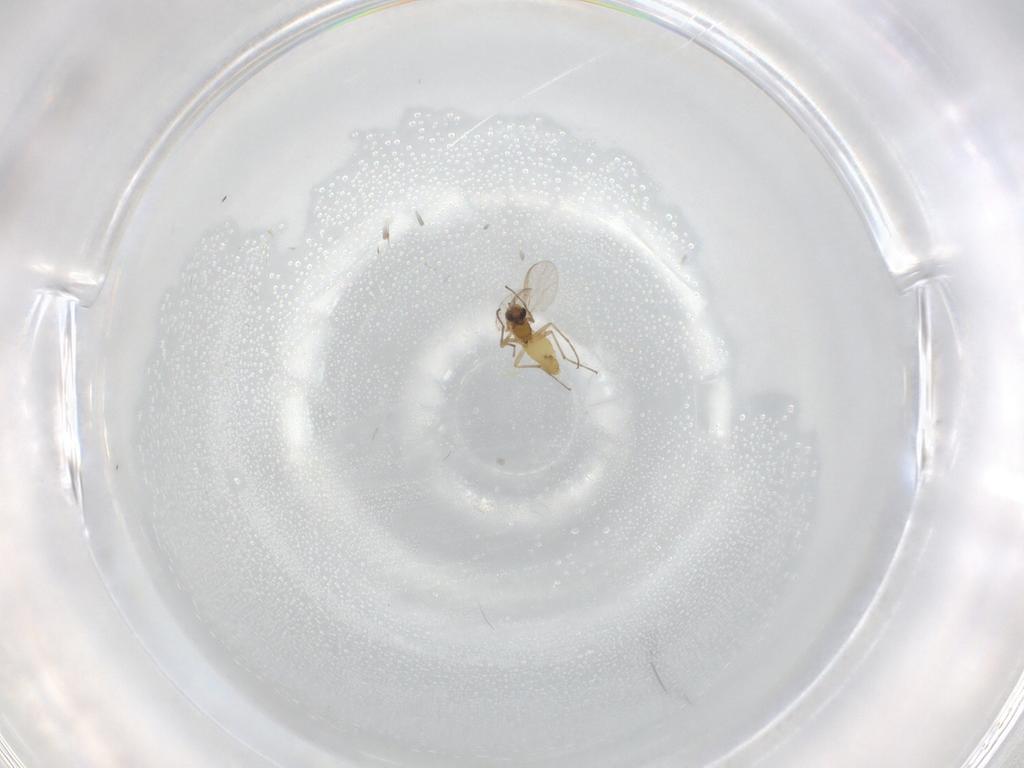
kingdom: Animalia
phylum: Arthropoda
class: Insecta
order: Diptera
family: Chironomidae
